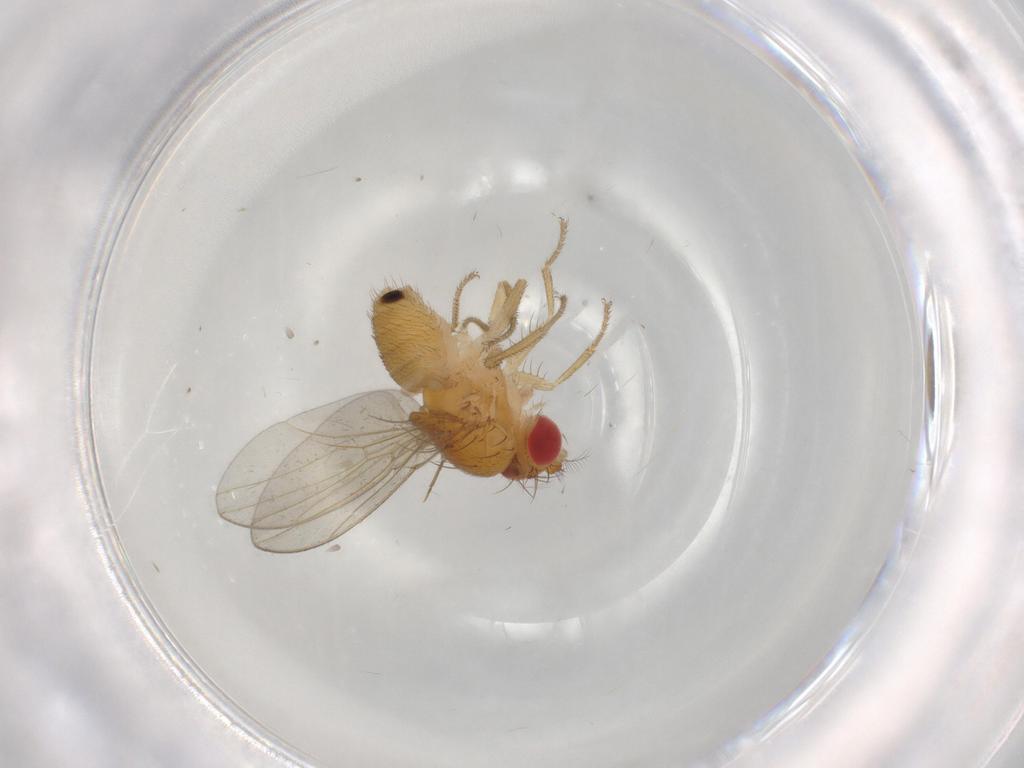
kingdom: Animalia
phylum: Arthropoda
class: Insecta
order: Diptera
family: Drosophilidae
